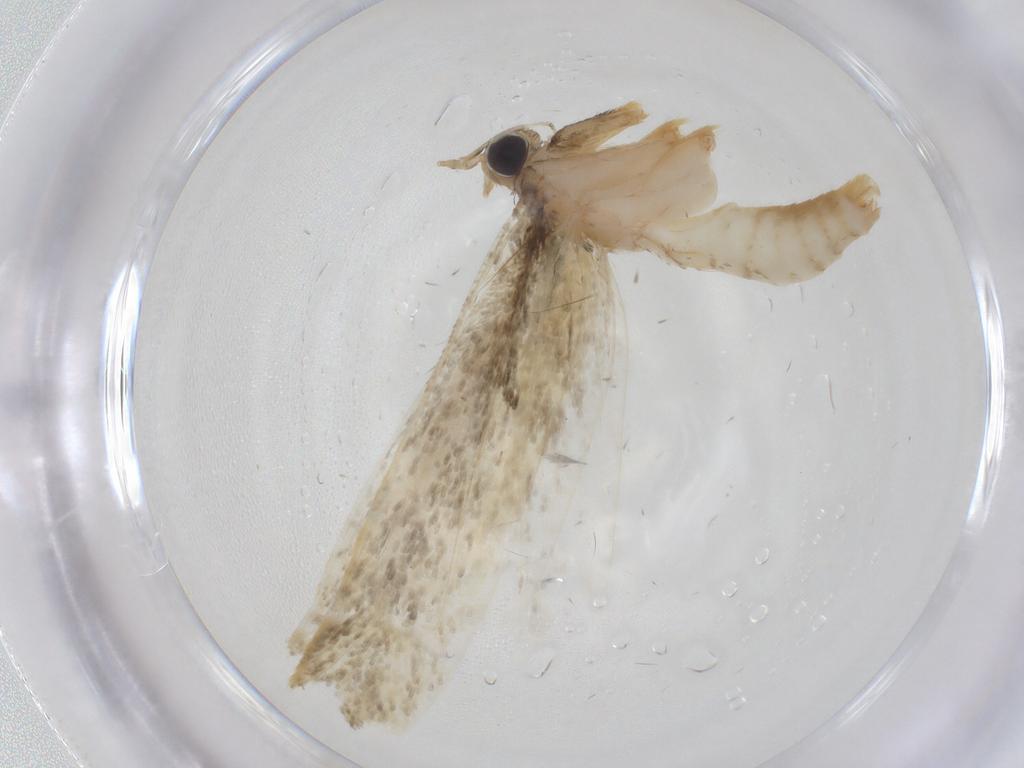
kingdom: Animalia
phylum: Arthropoda
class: Insecta
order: Lepidoptera
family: Tineidae
